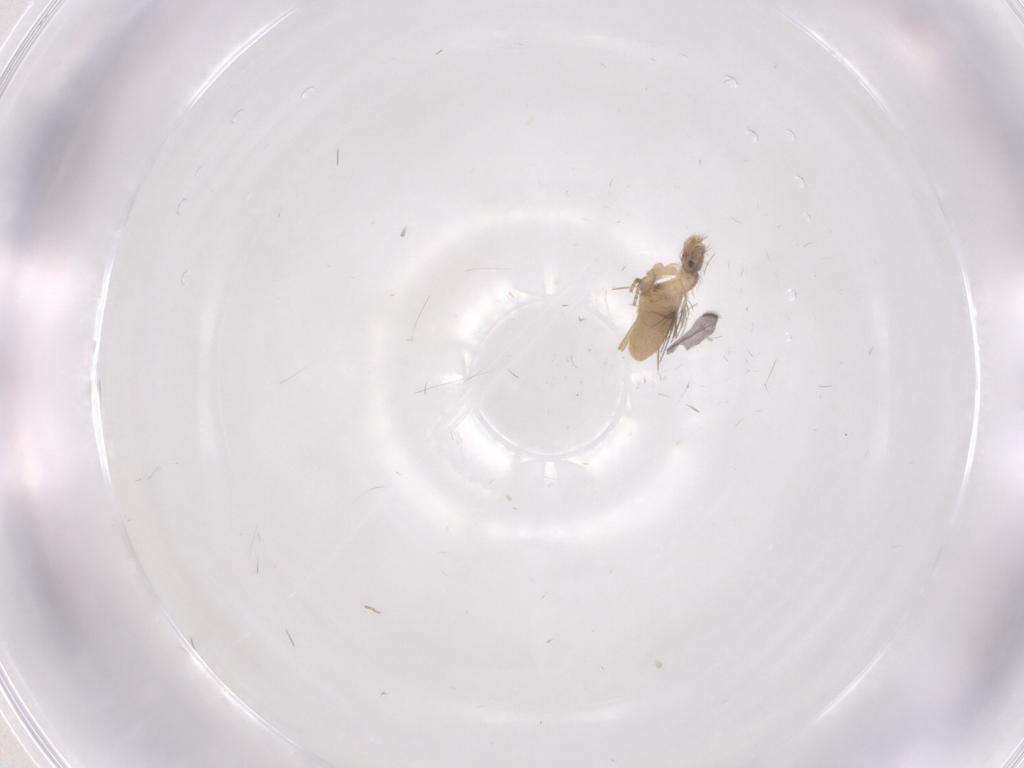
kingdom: Animalia
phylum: Arthropoda
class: Insecta
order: Diptera
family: Phoridae
